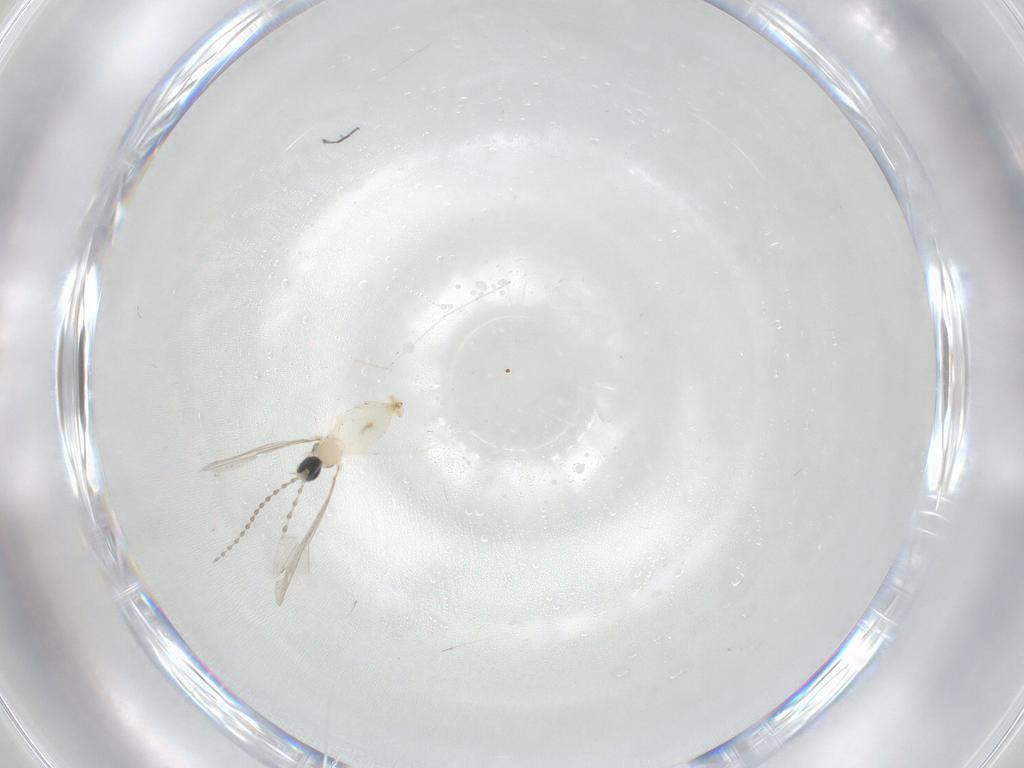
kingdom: Animalia
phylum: Arthropoda
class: Insecta
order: Diptera
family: Cecidomyiidae
